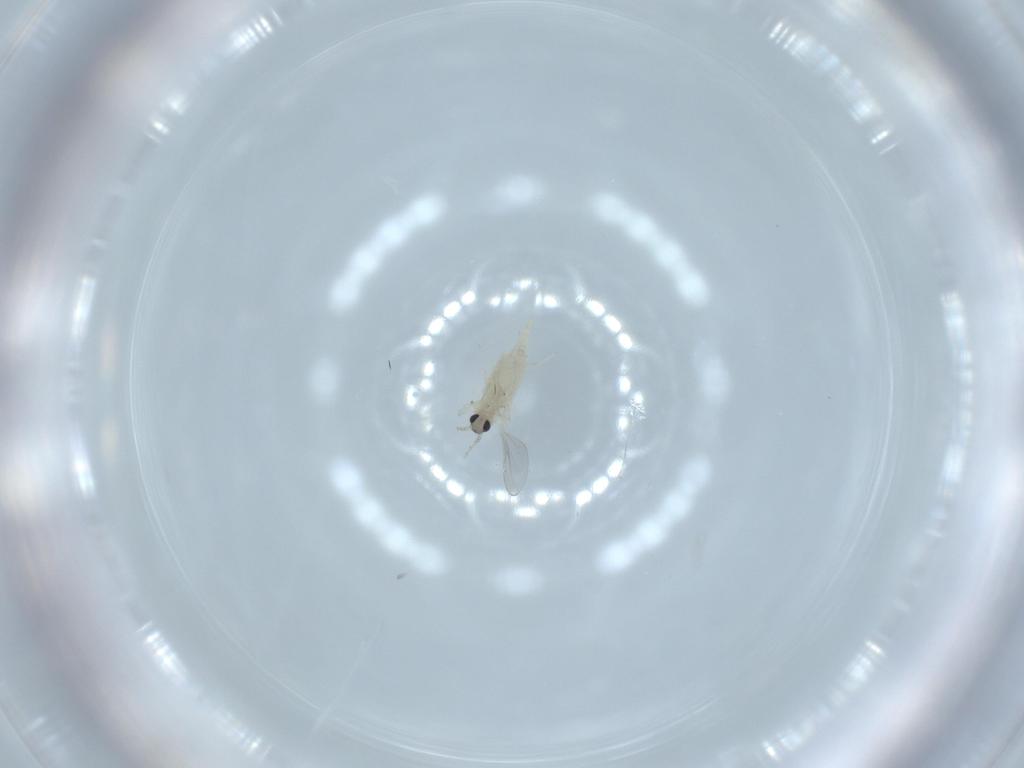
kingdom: Animalia
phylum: Arthropoda
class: Insecta
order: Diptera
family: Cecidomyiidae
